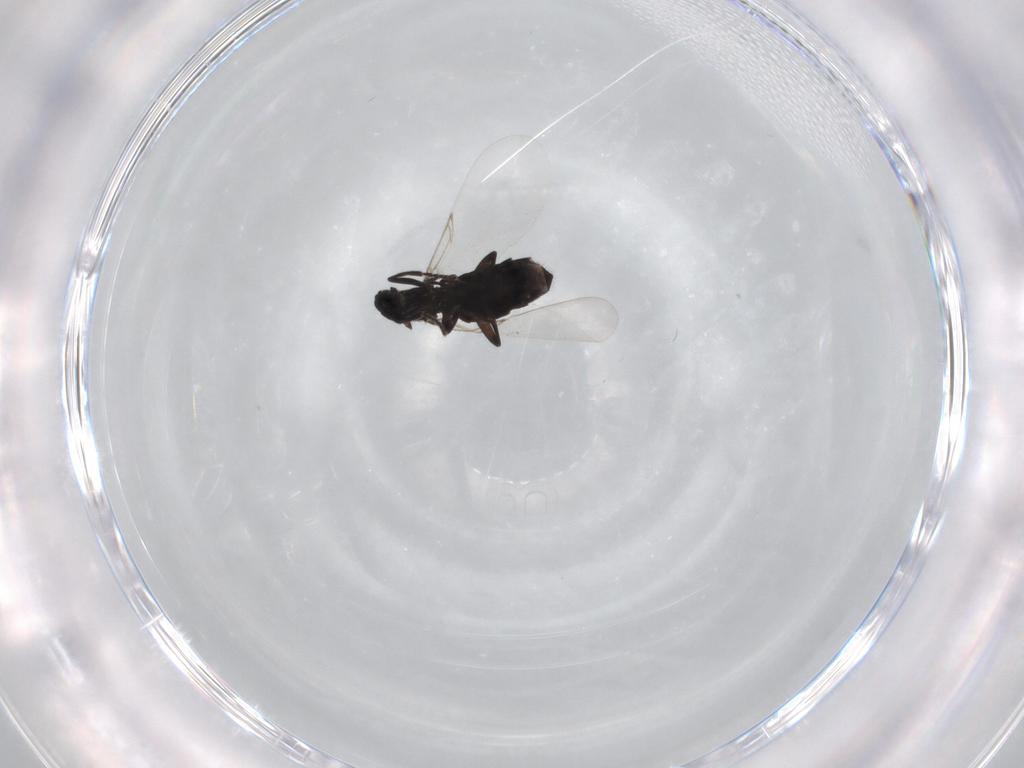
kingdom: Animalia
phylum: Arthropoda
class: Insecta
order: Diptera
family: Scatopsidae
